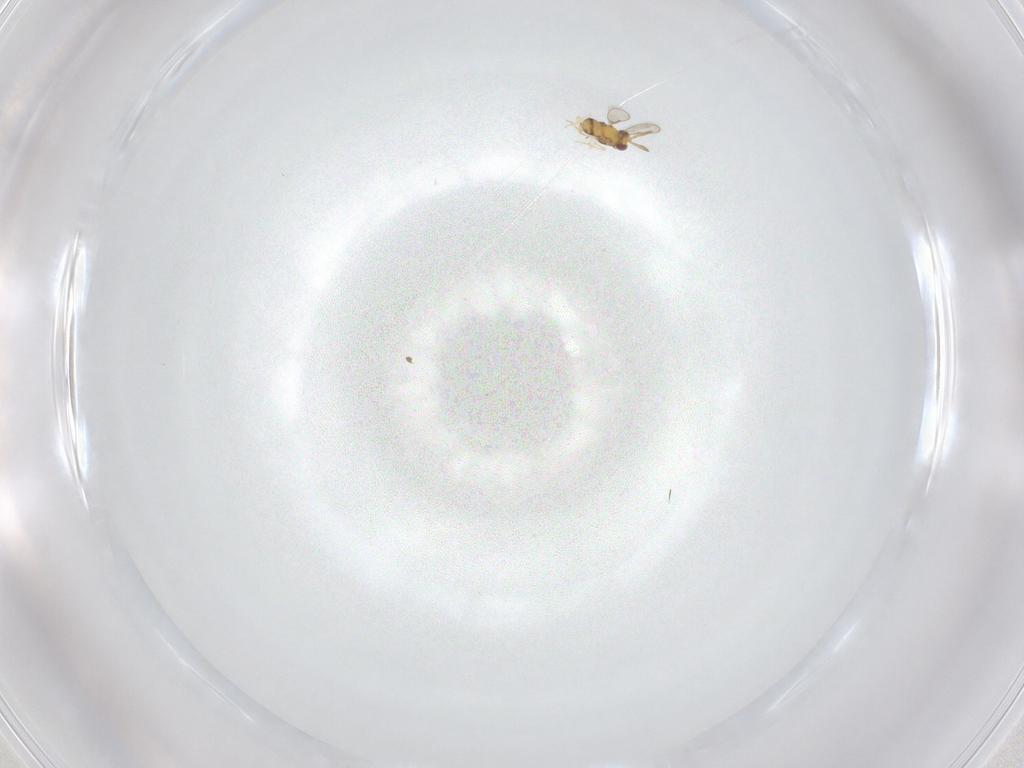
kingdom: Animalia
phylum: Arthropoda
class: Insecta
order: Hymenoptera
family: Aphelinidae
